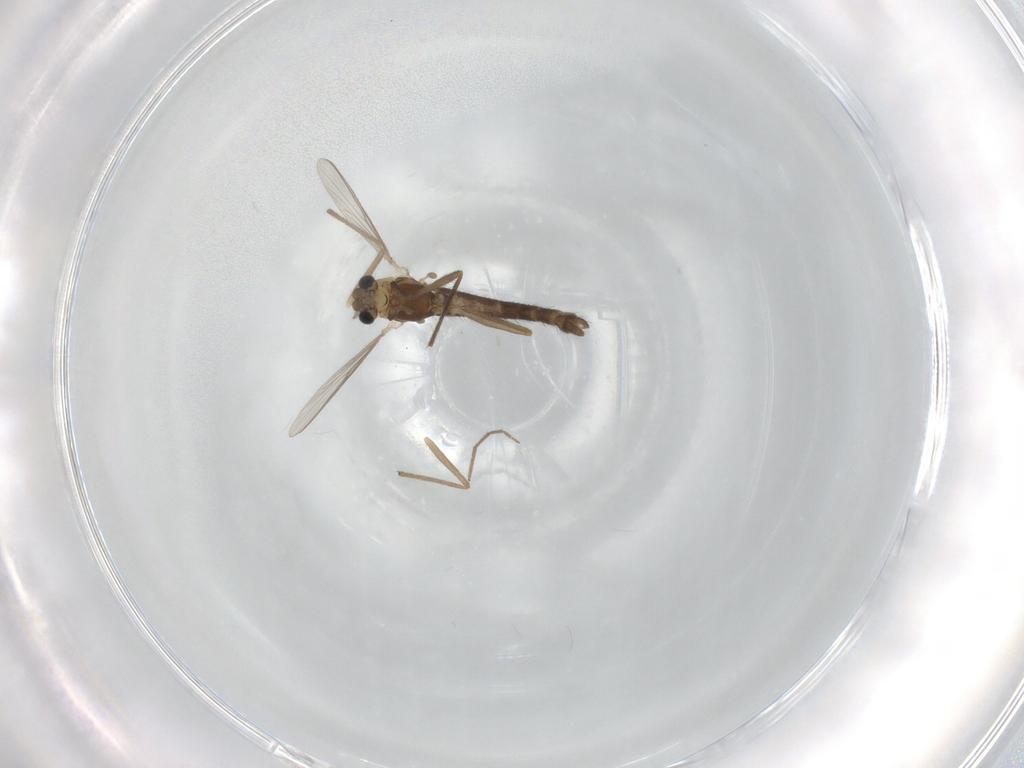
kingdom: Animalia
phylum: Arthropoda
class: Insecta
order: Diptera
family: Chironomidae
